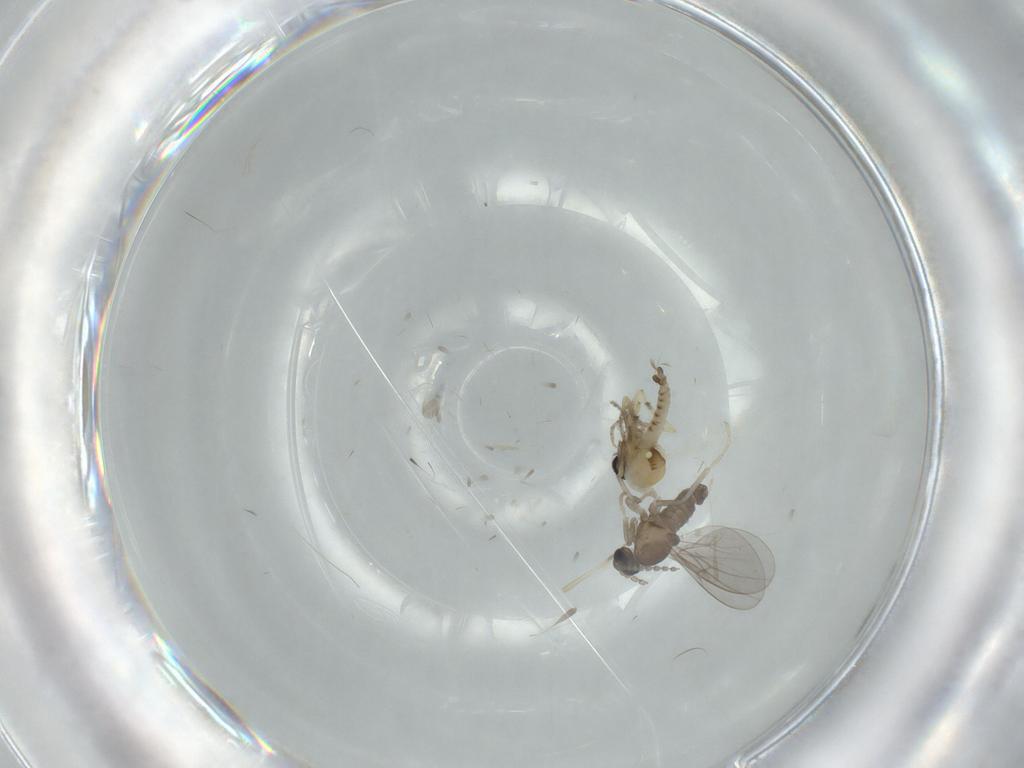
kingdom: Animalia
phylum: Arthropoda
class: Insecta
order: Diptera
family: Cecidomyiidae
